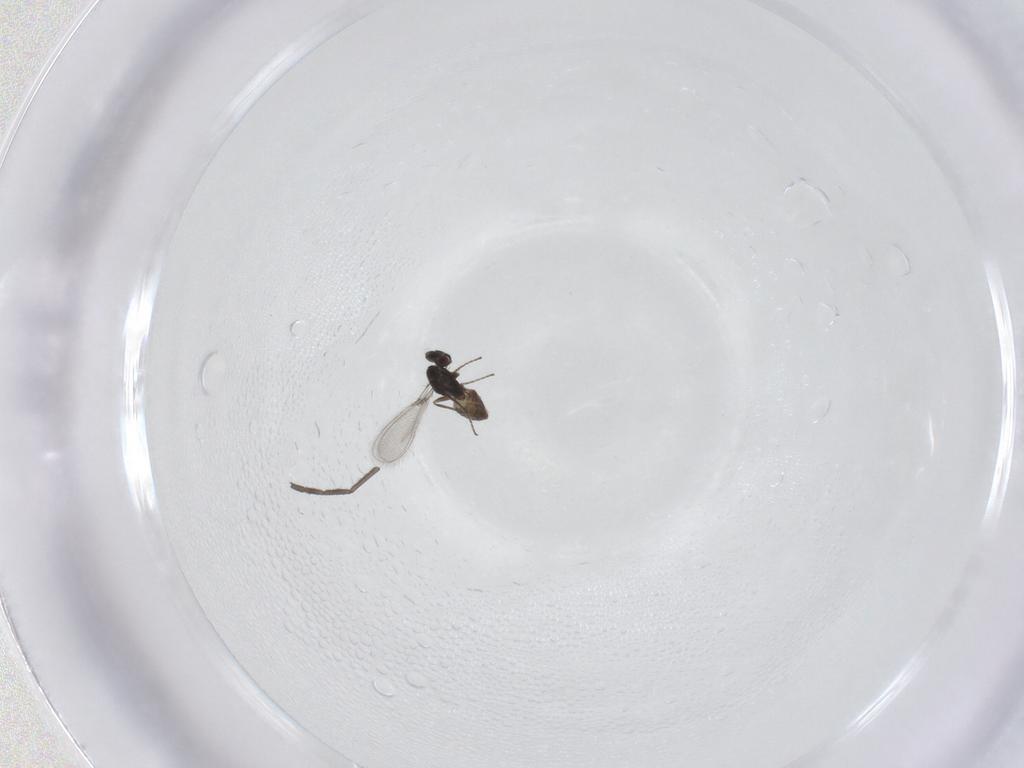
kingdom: Animalia
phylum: Arthropoda
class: Insecta
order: Diptera
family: Cecidomyiidae
